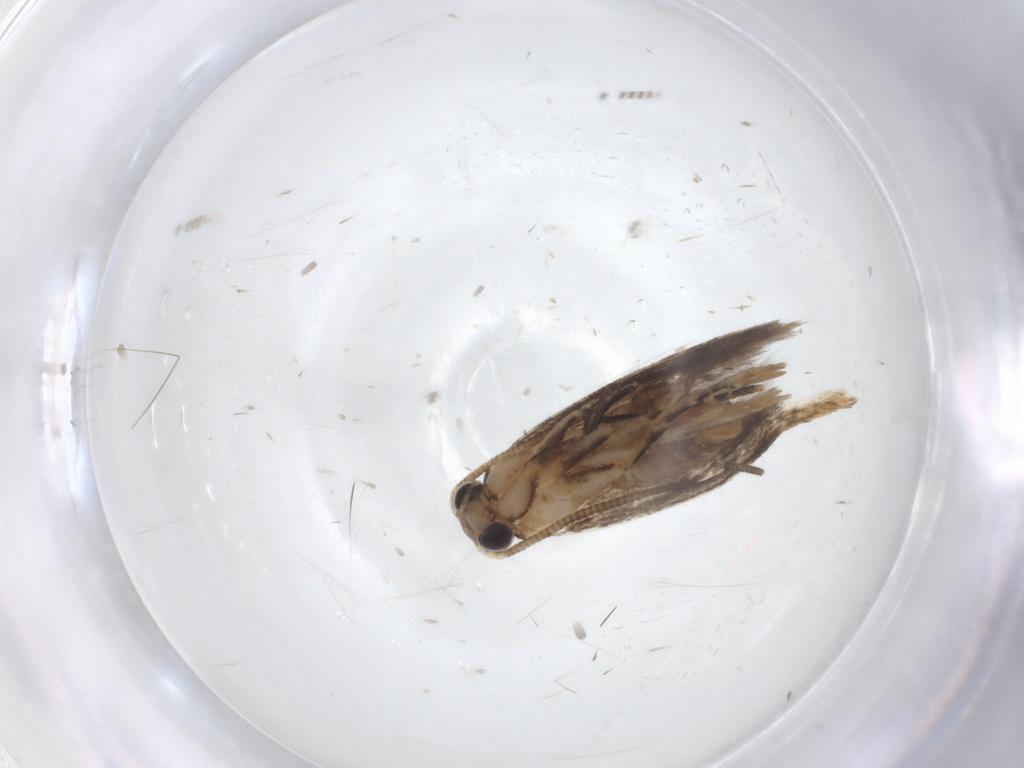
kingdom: Animalia
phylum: Arthropoda
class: Insecta
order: Lepidoptera
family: Gelechiidae
